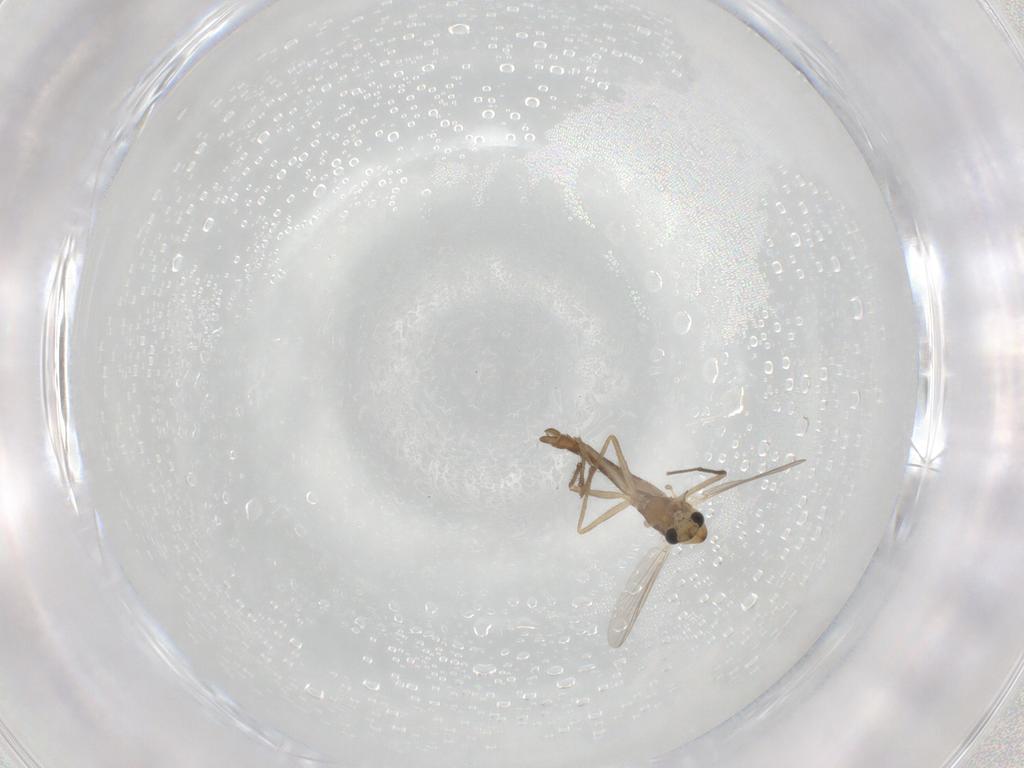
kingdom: Animalia
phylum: Arthropoda
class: Insecta
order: Diptera
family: Chironomidae
